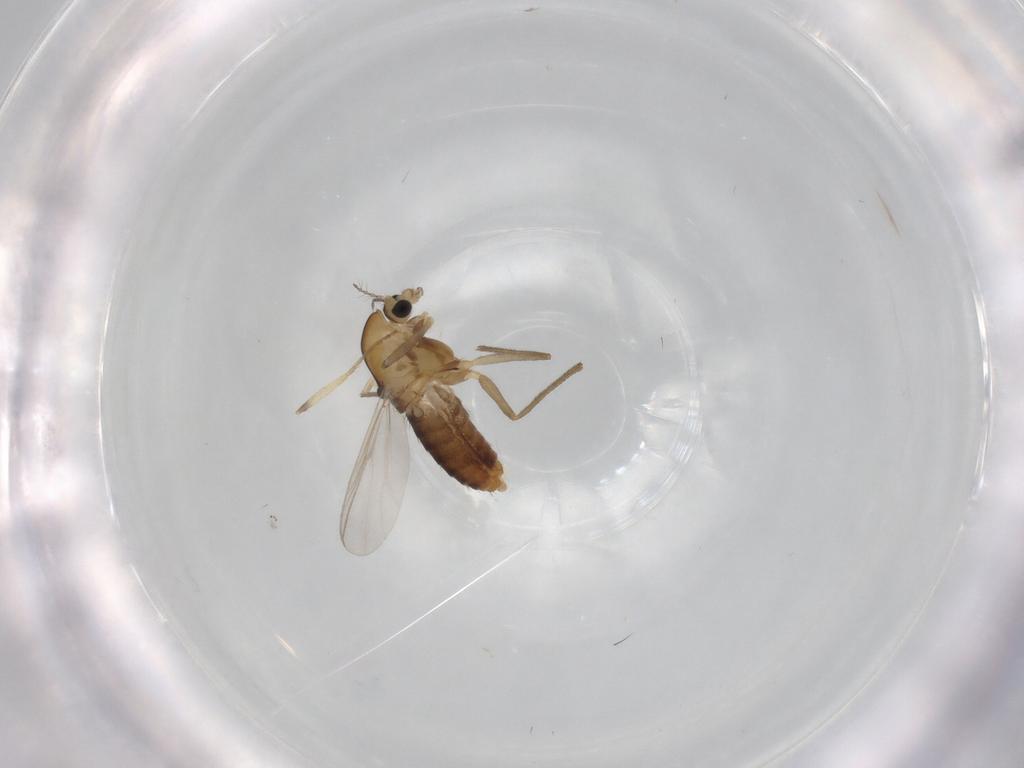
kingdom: Animalia
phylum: Arthropoda
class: Insecta
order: Diptera
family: Chironomidae
